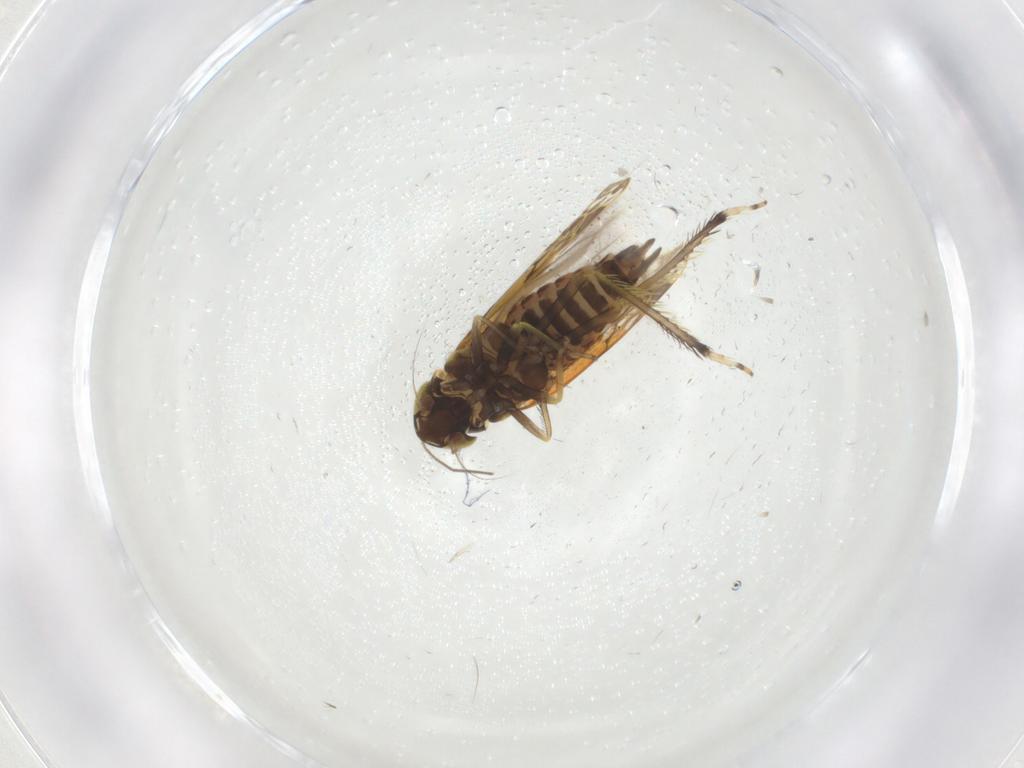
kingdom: Animalia
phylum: Arthropoda
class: Insecta
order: Hemiptera
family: Cicadellidae
